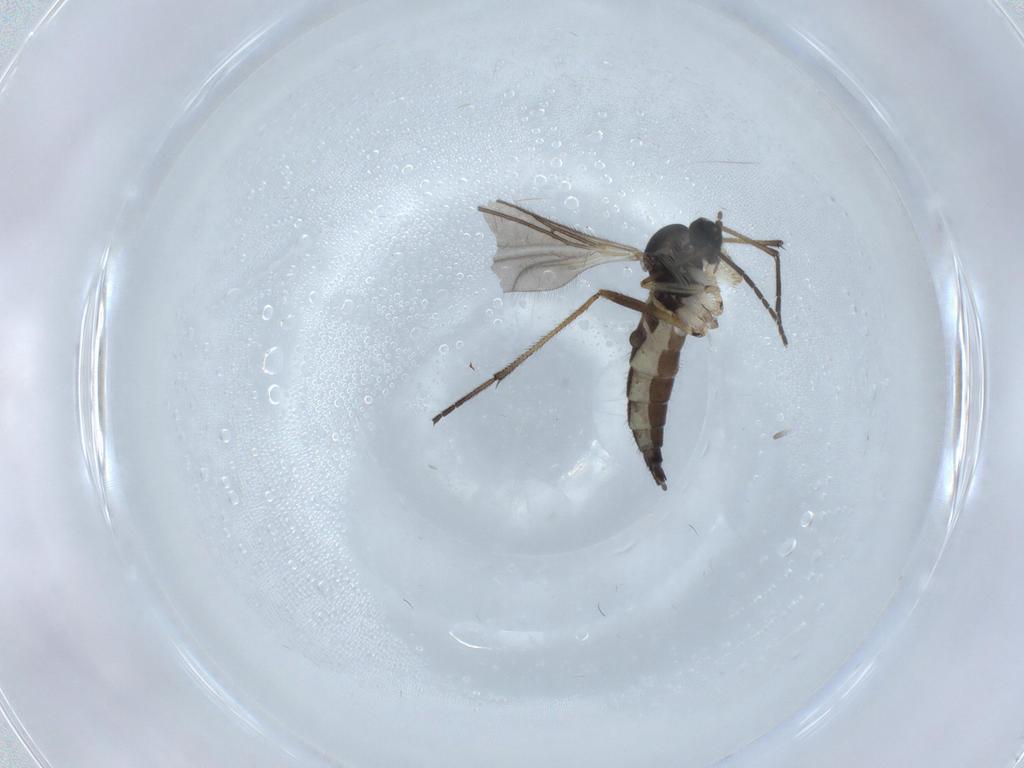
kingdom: Animalia
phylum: Arthropoda
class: Insecta
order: Diptera
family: Sciaridae
